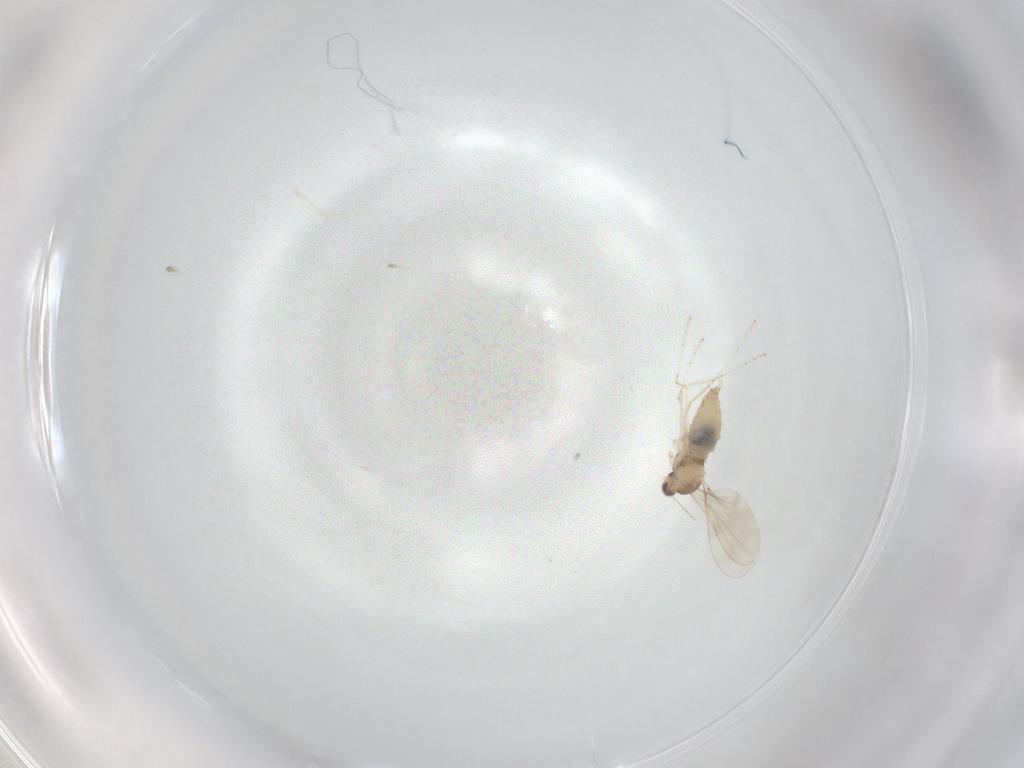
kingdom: Animalia
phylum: Arthropoda
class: Insecta
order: Diptera
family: Cecidomyiidae
